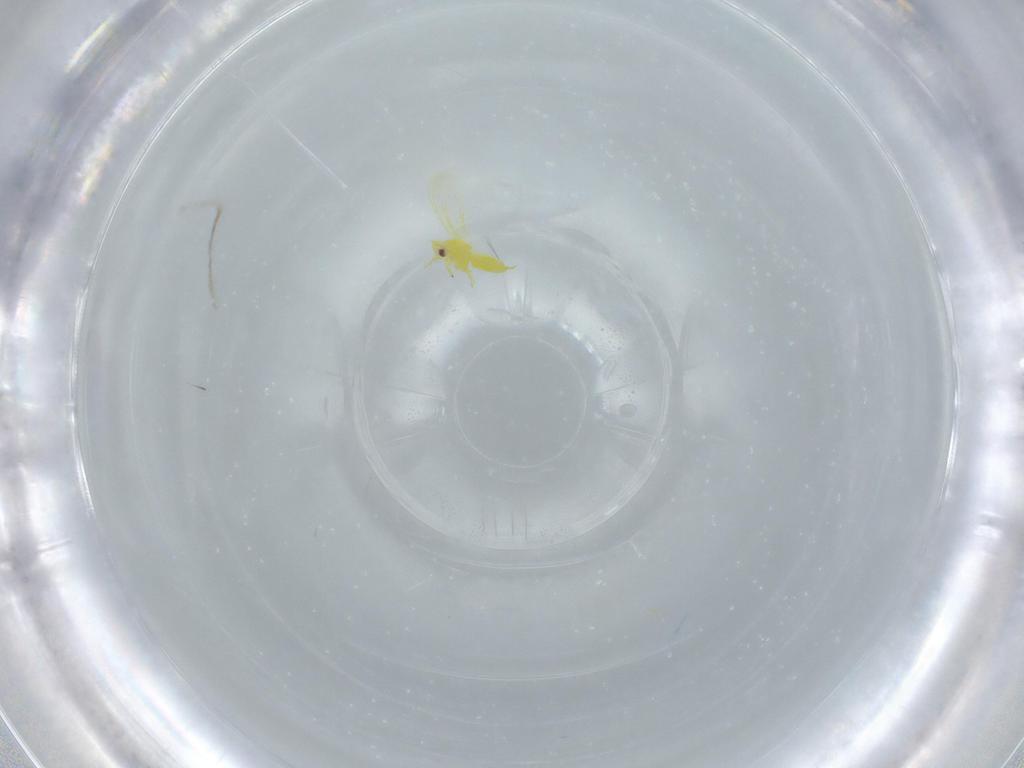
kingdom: Animalia
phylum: Arthropoda
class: Insecta
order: Hemiptera
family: Aleyrodidae
